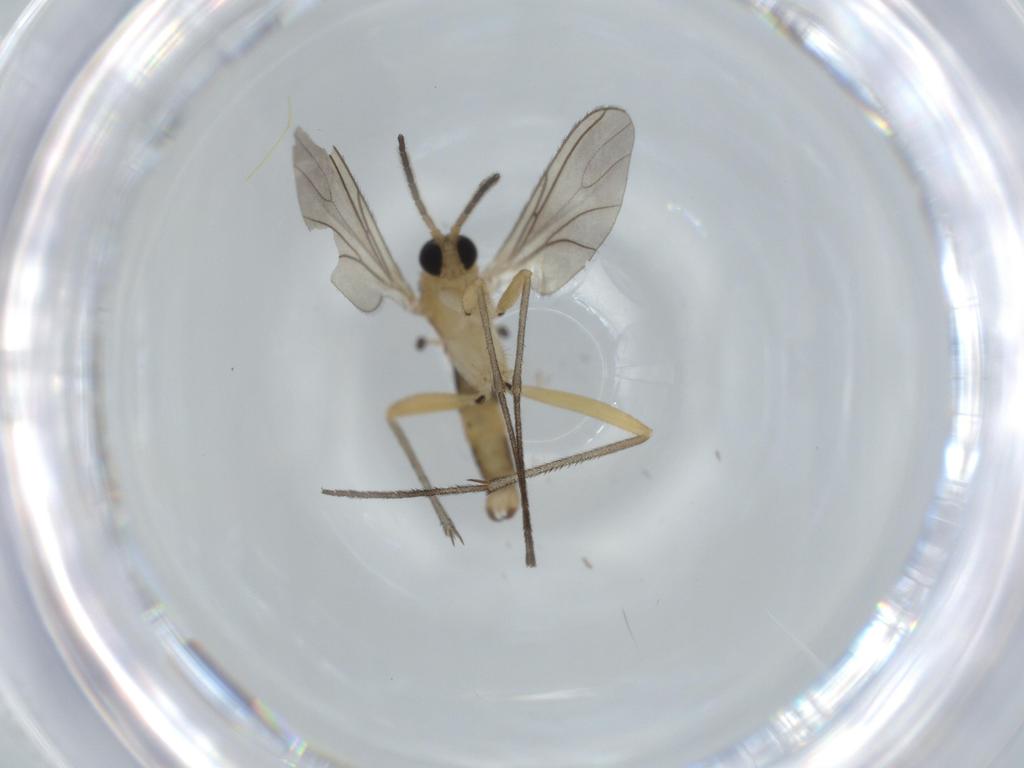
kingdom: Animalia
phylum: Arthropoda
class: Insecta
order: Diptera
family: Sciaridae
